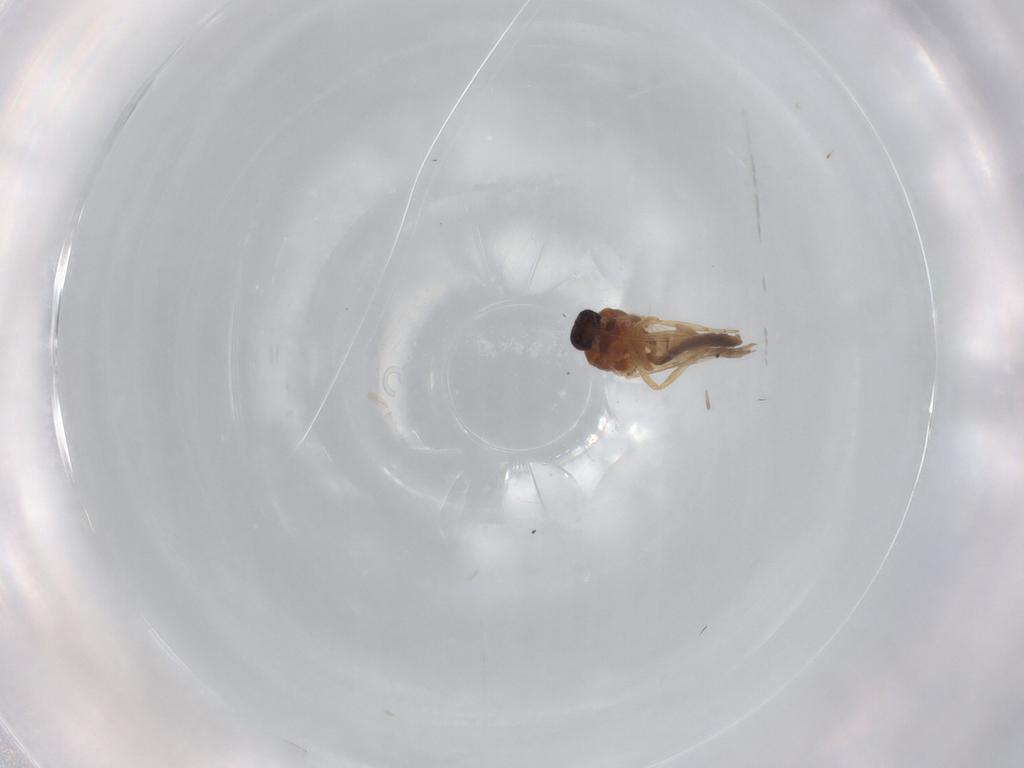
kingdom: Animalia
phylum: Arthropoda
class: Insecta
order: Diptera
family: Ceratopogonidae
